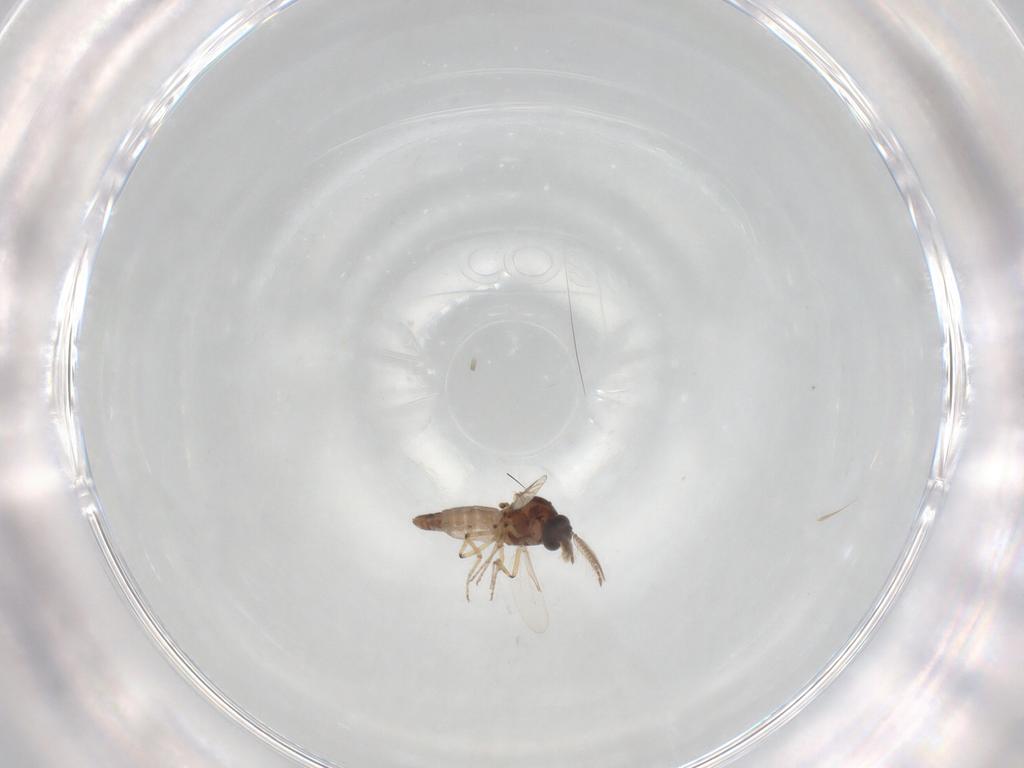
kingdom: Animalia
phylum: Arthropoda
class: Insecta
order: Diptera
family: Ceratopogonidae
